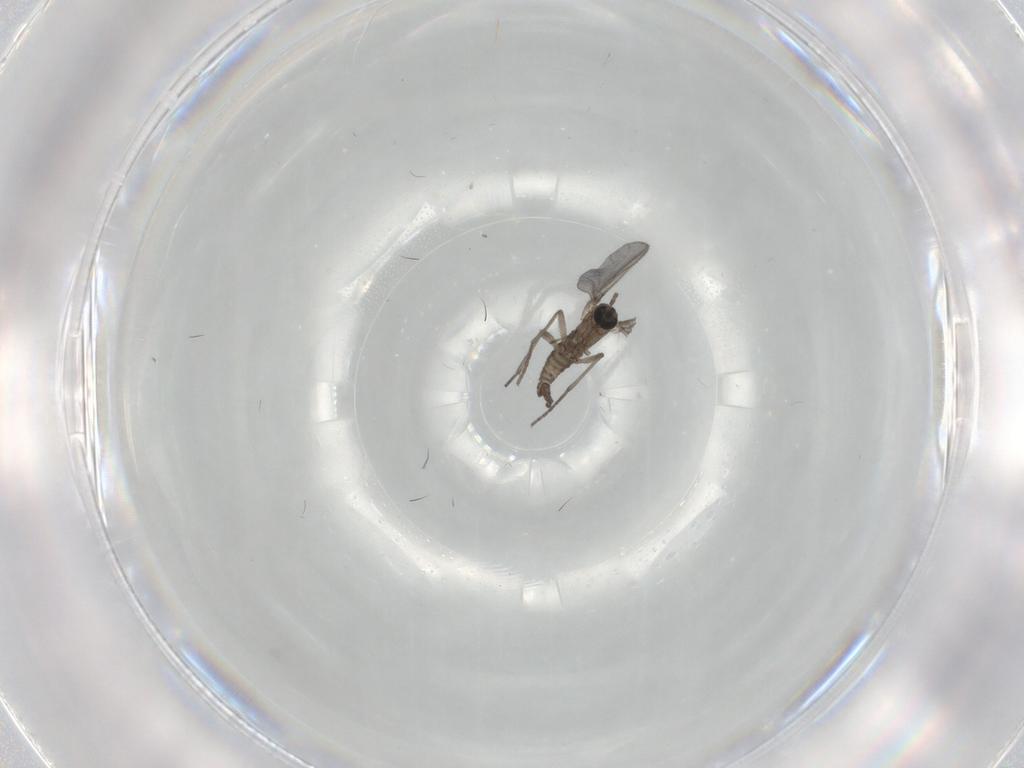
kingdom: Animalia
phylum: Arthropoda
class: Insecta
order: Diptera
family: Sciaridae
